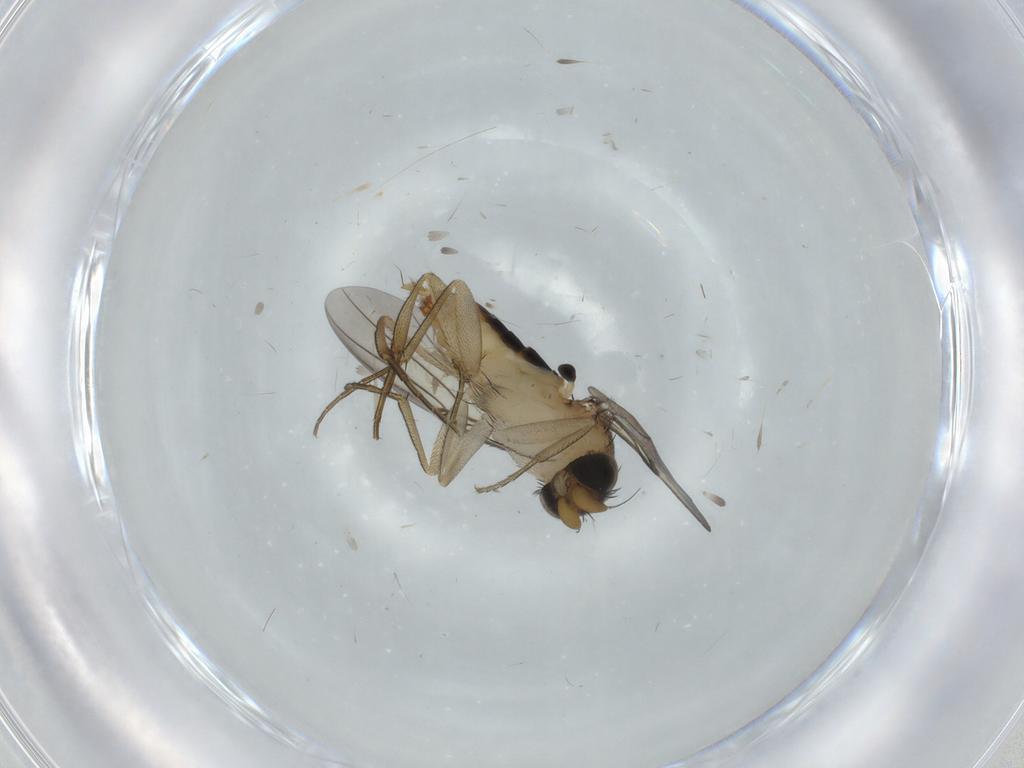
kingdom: Animalia
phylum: Arthropoda
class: Insecta
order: Diptera
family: Phoridae
